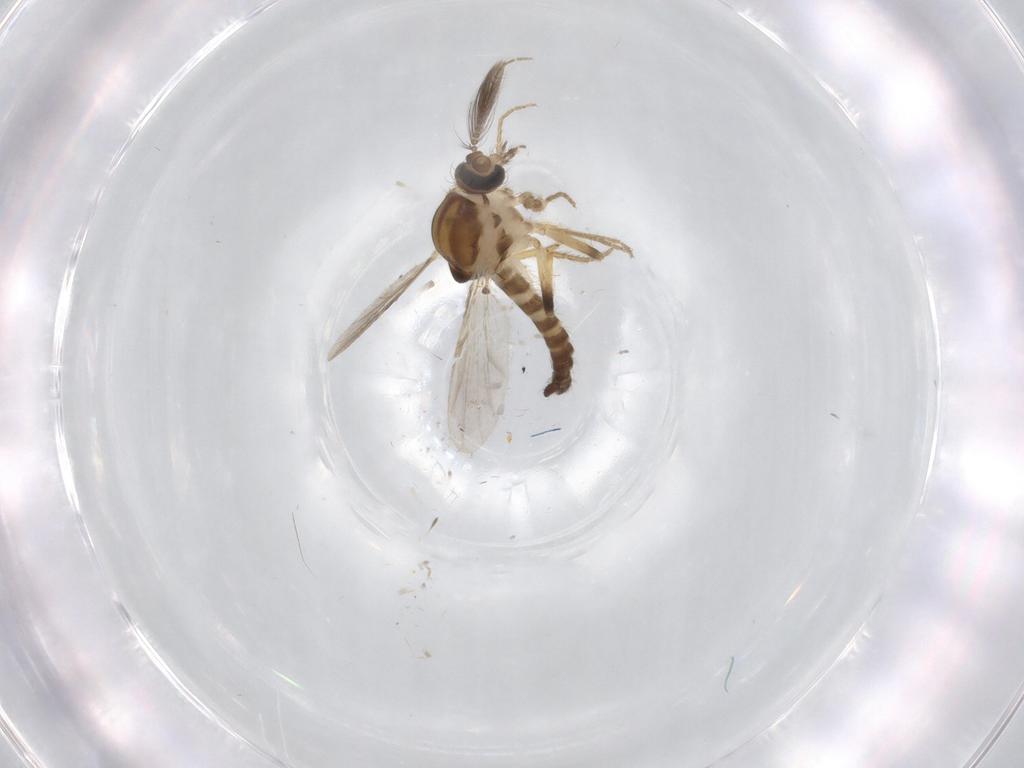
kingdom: Animalia
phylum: Arthropoda
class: Insecta
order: Diptera
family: Ceratopogonidae
